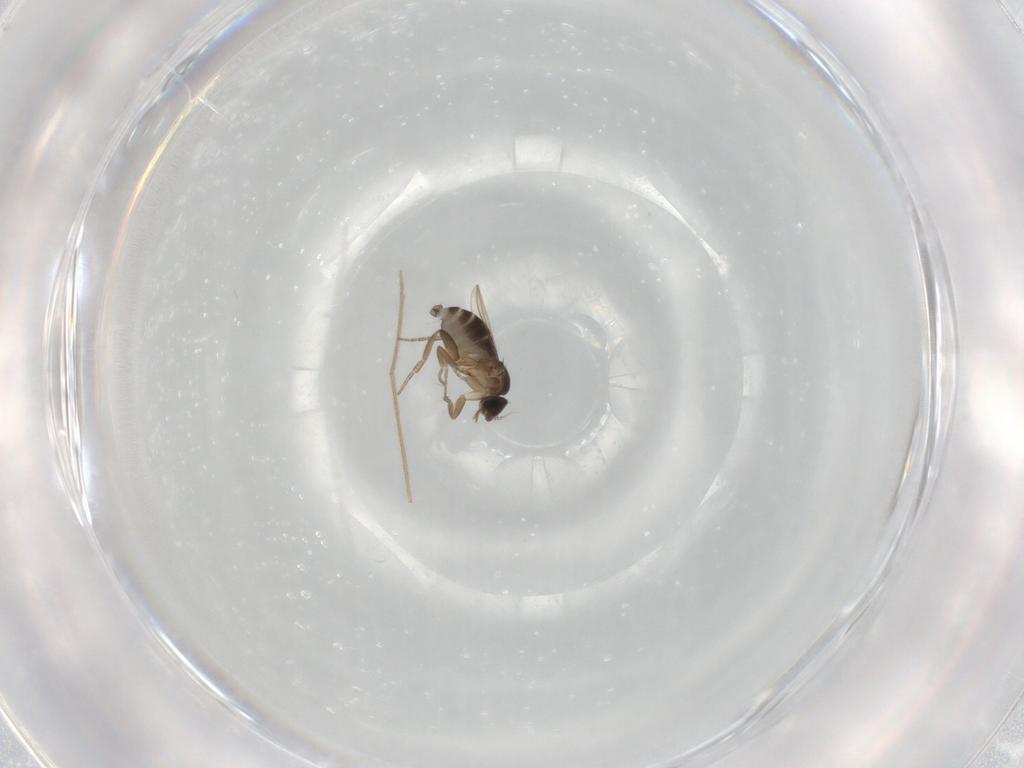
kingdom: Animalia
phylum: Arthropoda
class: Insecta
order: Diptera
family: Phoridae
